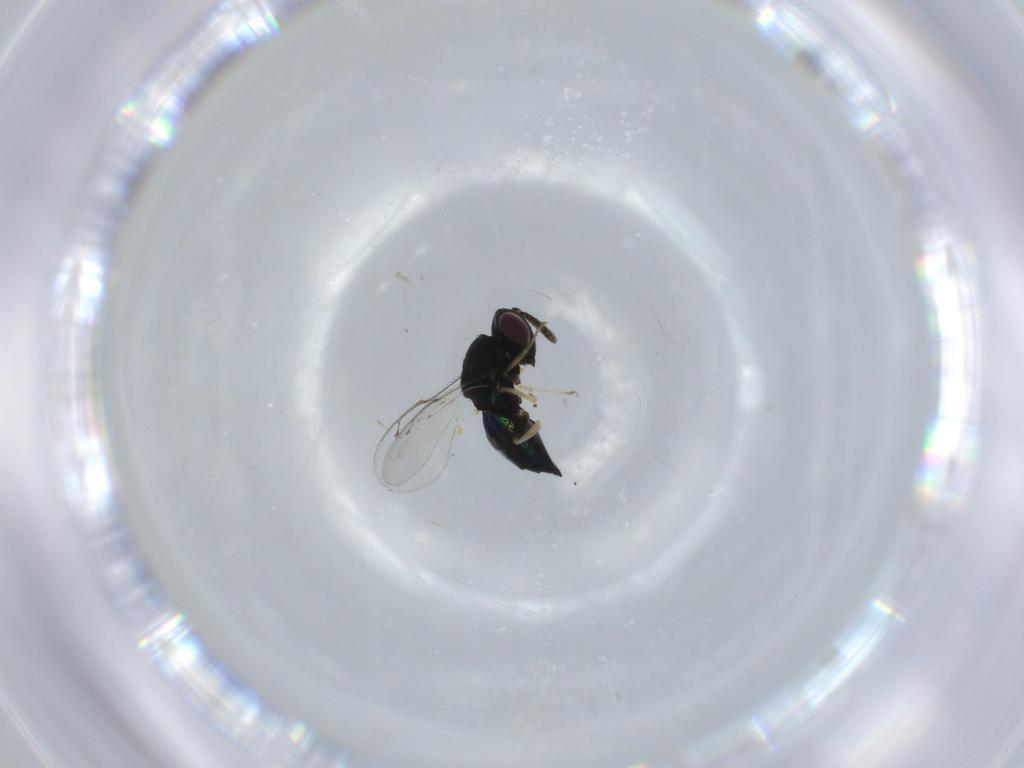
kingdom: Animalia
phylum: Arthropoda
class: Insecta
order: Hymenoptera
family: Pteromalidae
